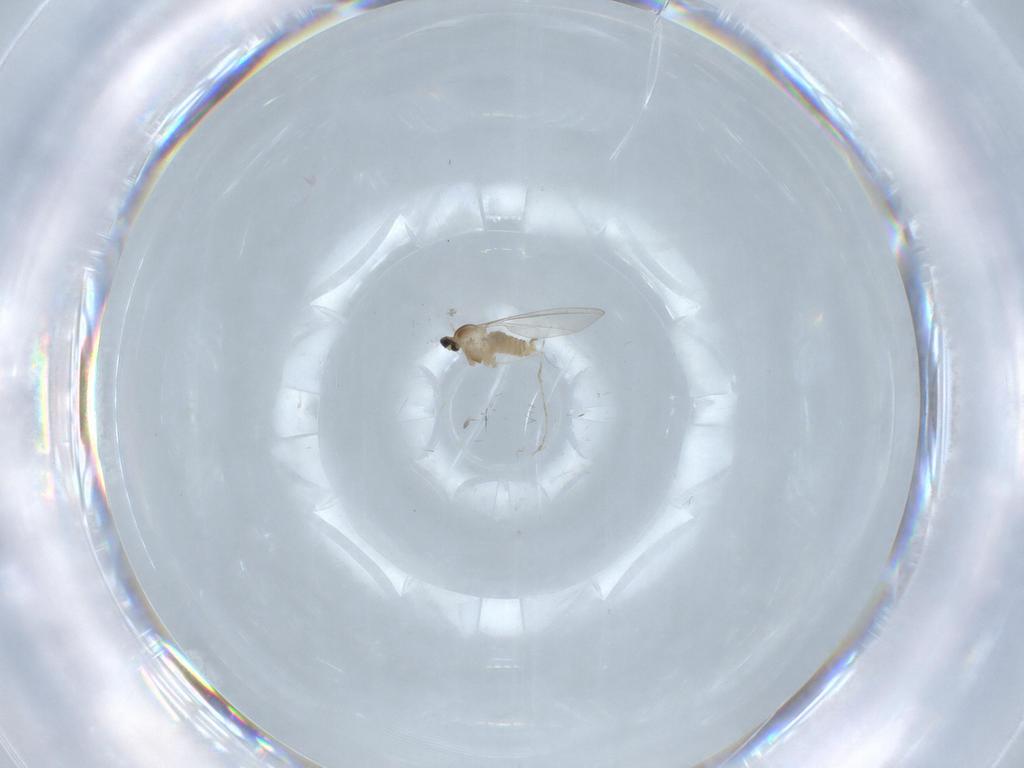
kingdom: Animalia
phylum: Arthropoda
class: Insecta
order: Diptera
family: Cecidomyiidae
